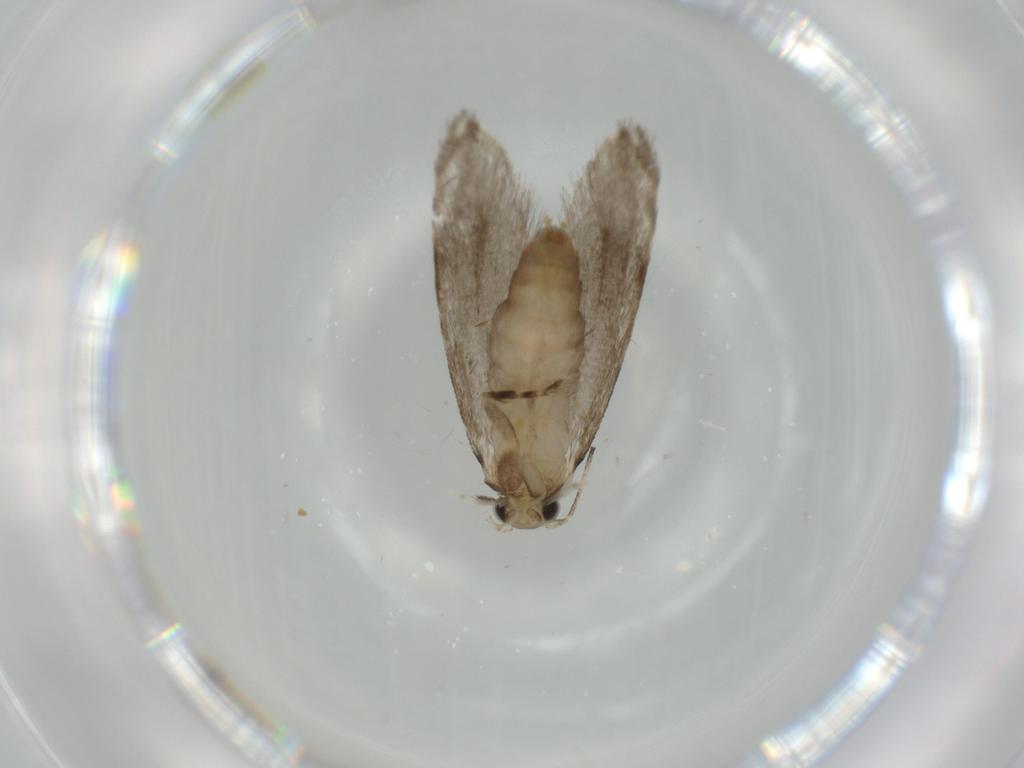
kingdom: Animalia
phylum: Arthropoda
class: Insecta
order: Lepidoptera
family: Tineidae
